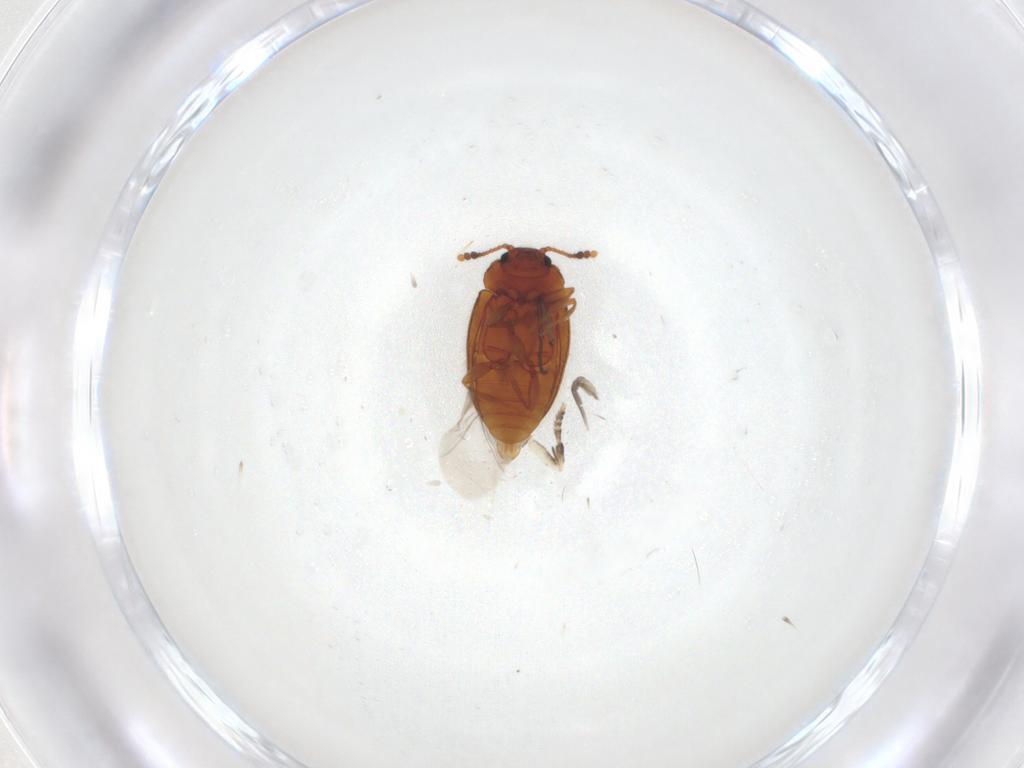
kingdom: Animalia
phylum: Arthropoda
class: Insecta
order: Coleoptera
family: Erotylidae
